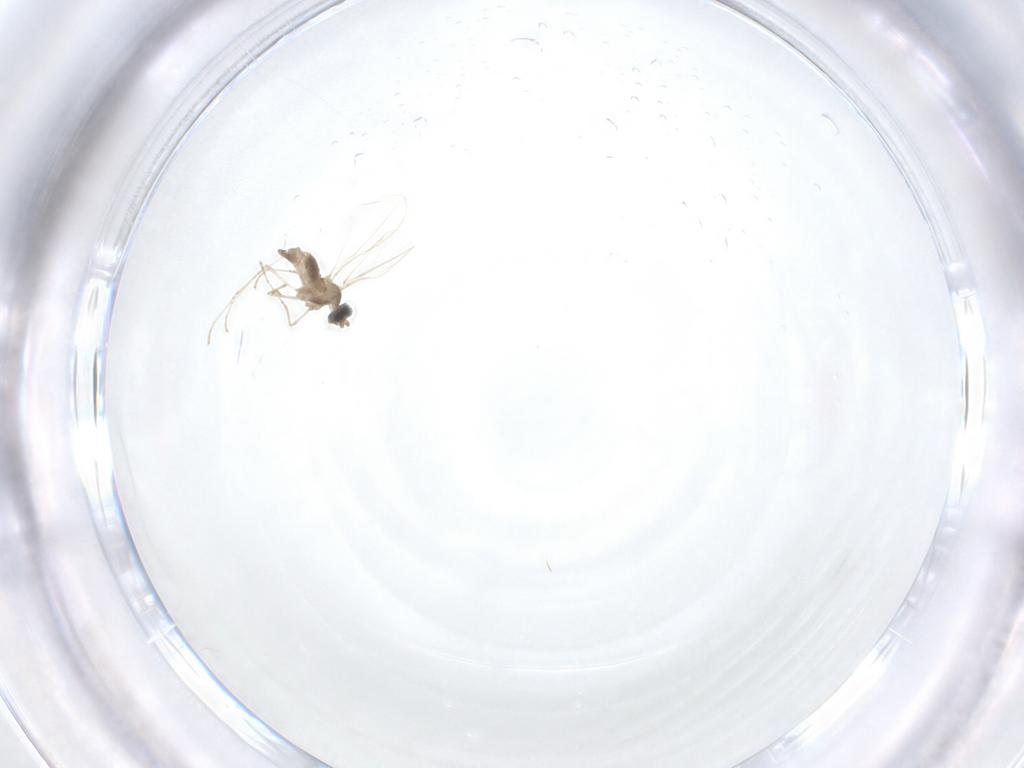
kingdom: Animalia
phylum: Arthropoda
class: Insecta
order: Diptera
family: Cecidomyiidae
